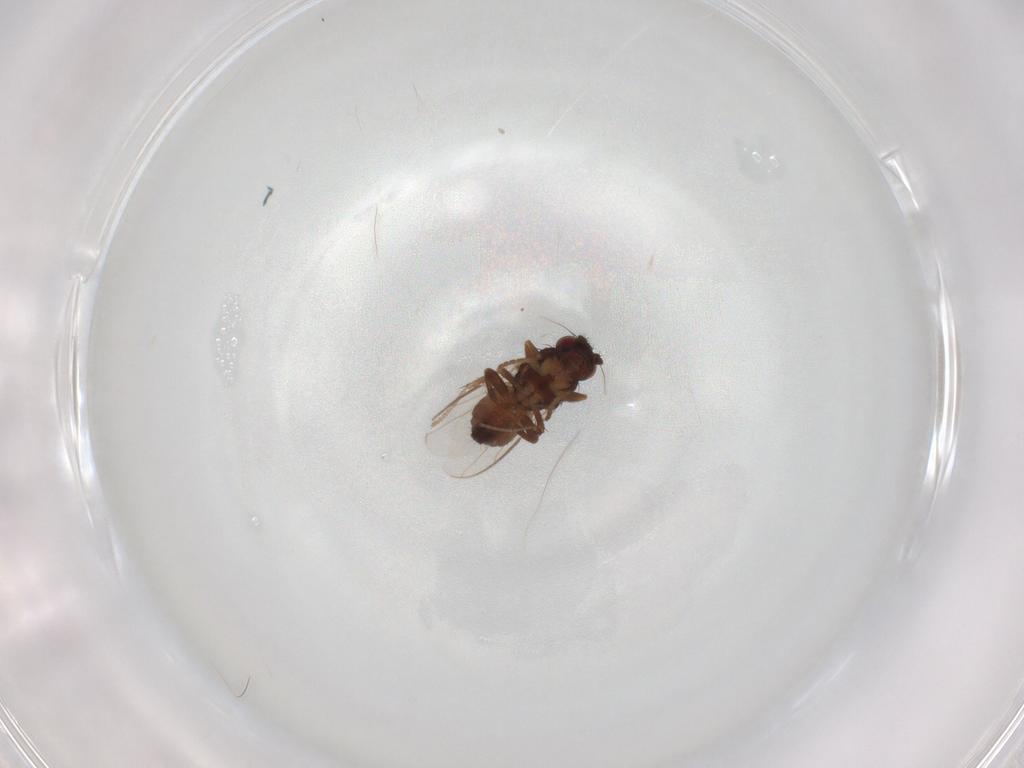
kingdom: Animalia
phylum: Arthropoda
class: Insecta
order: Diptera
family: Sphaeroceridae
